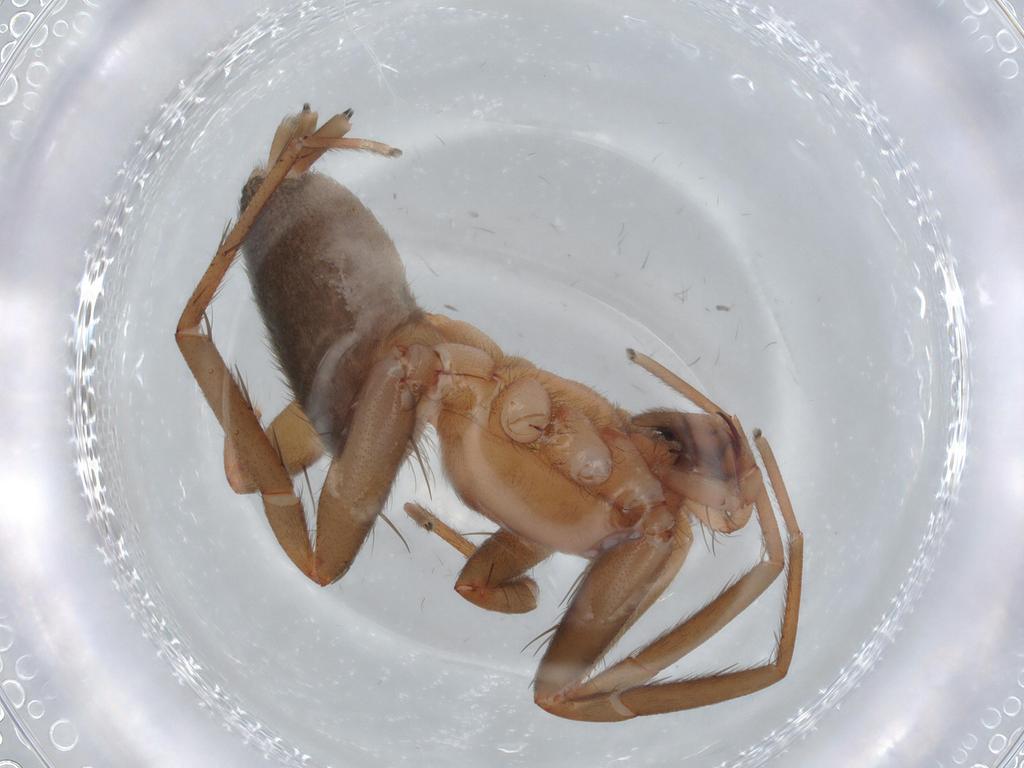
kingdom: Animalia
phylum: Arthropoda
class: Arachnida
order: Araneae
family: Gnaphosidae
